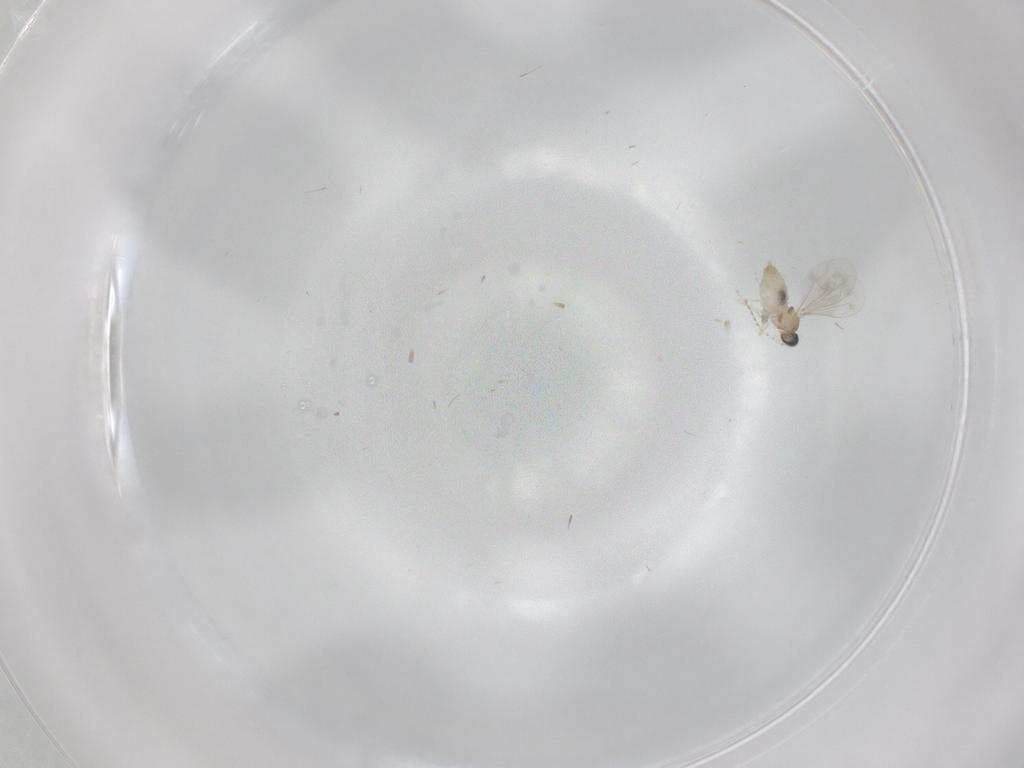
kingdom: Animalia
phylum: Arthropoda
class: Insecta
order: Diptera
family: Cecidomyiidae
